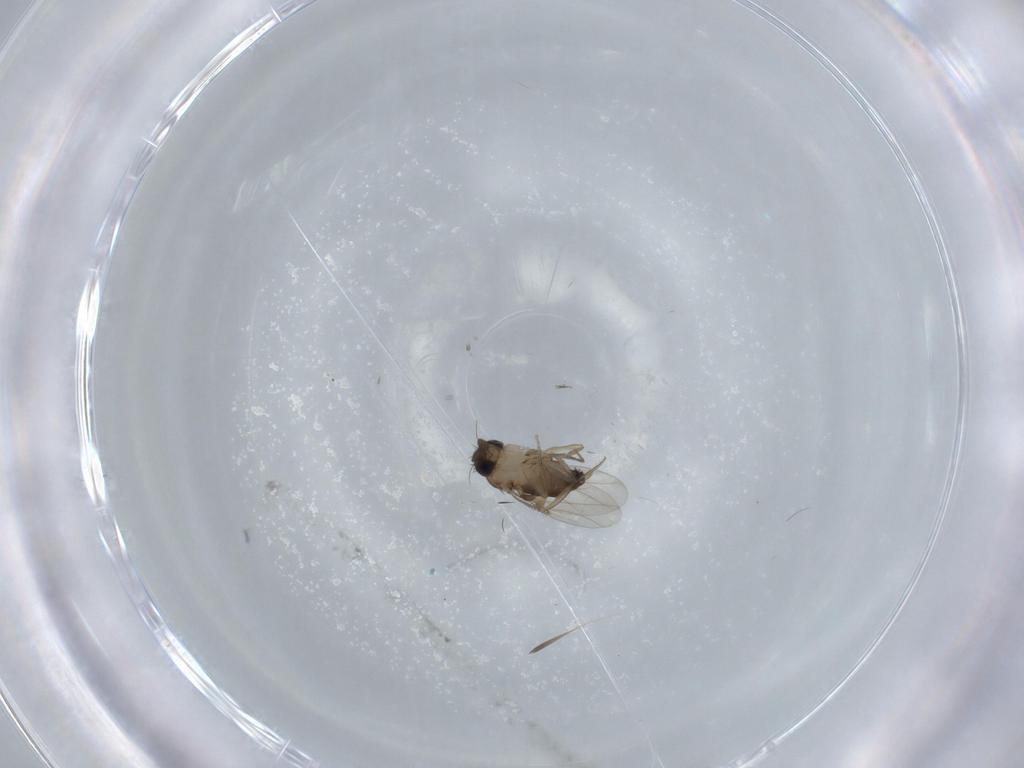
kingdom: Animalia
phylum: Arthropoda
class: Insecta
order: Diptera
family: Phoridae
